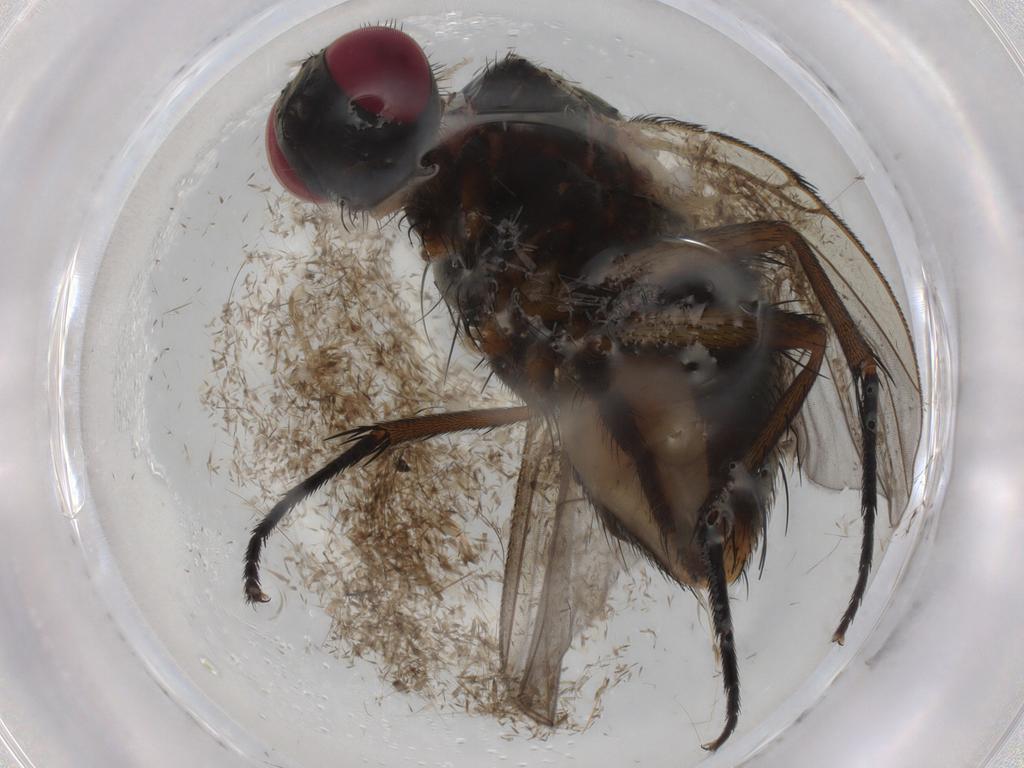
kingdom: Animalia
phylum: Arthropoda
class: Insecta
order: Diptera
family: Muscidae
